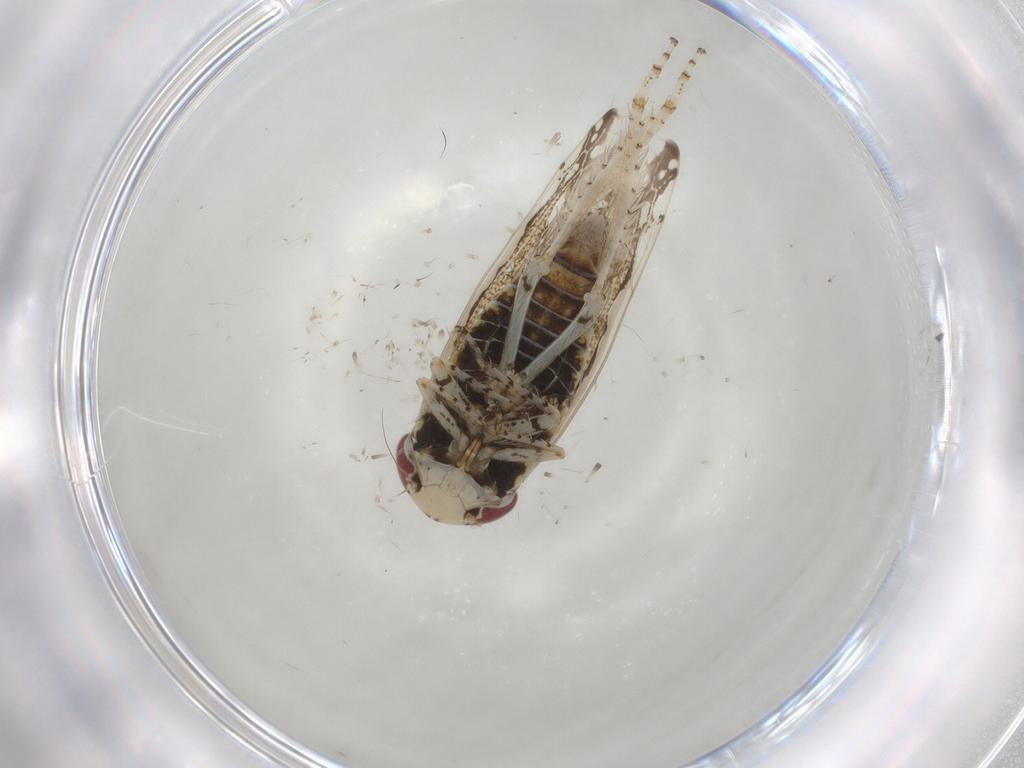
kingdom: Animalia
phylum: Arthropoda
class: Insecta
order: Hemiptera
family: Cicadellidae
